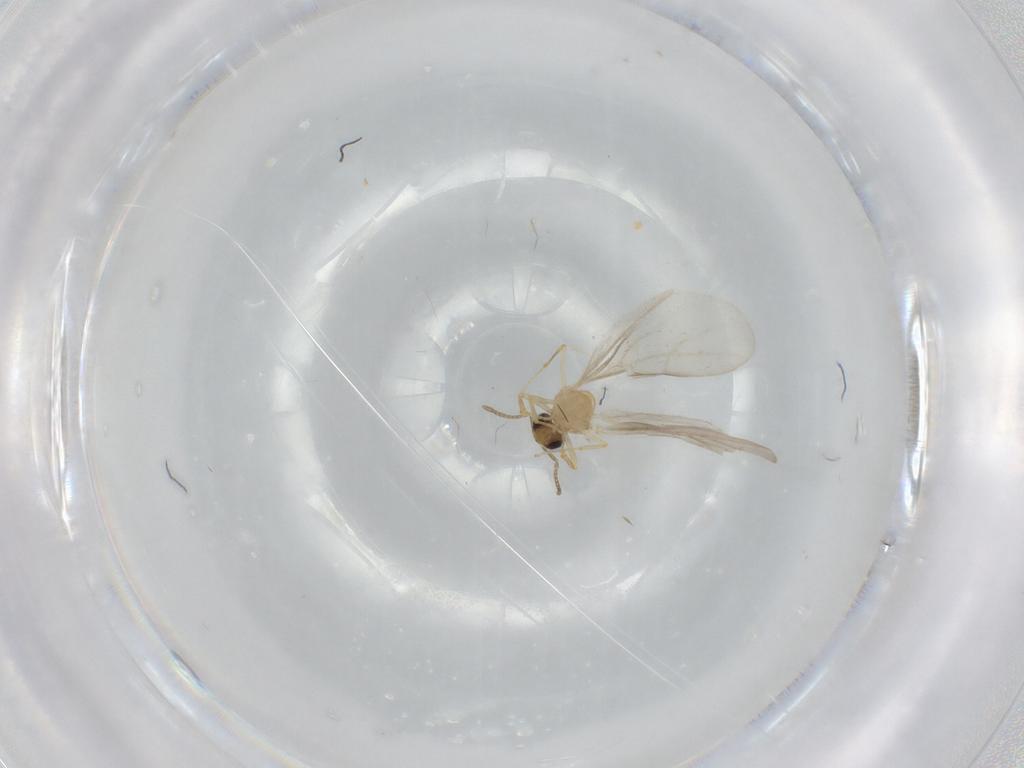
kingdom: Animalia
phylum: Arthropoda
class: Insecta
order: Hymenoptera
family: Formicidae
